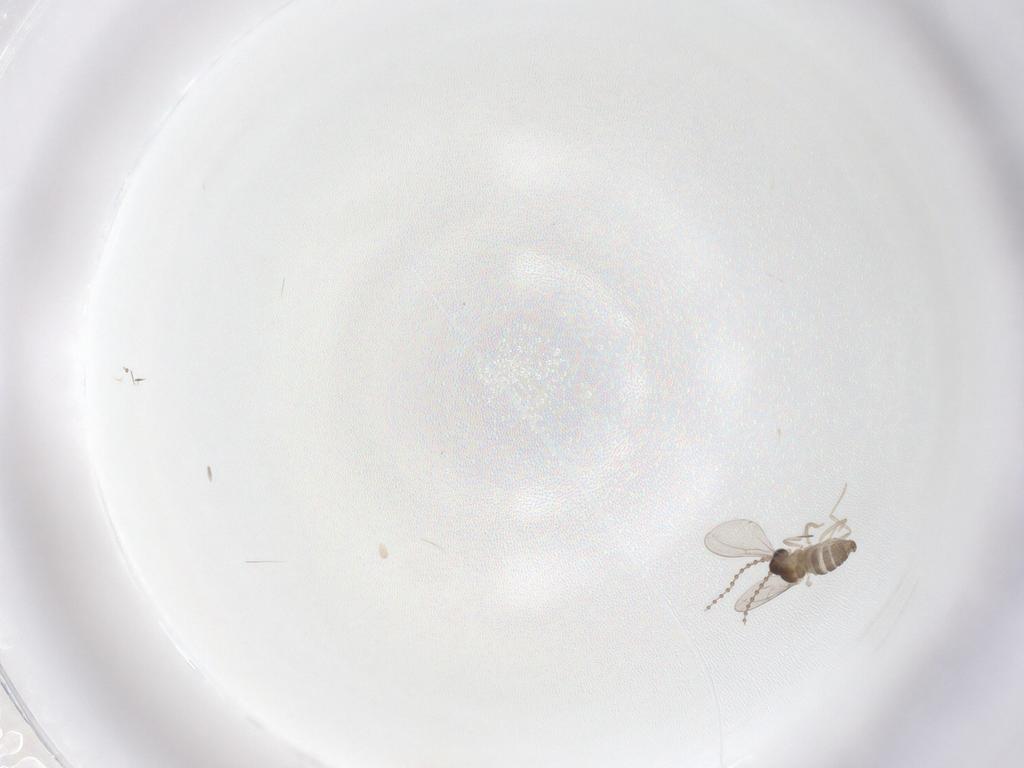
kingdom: Animalia
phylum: Arthropoda
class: Insecta
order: Diptera
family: Cecidomyiidae
